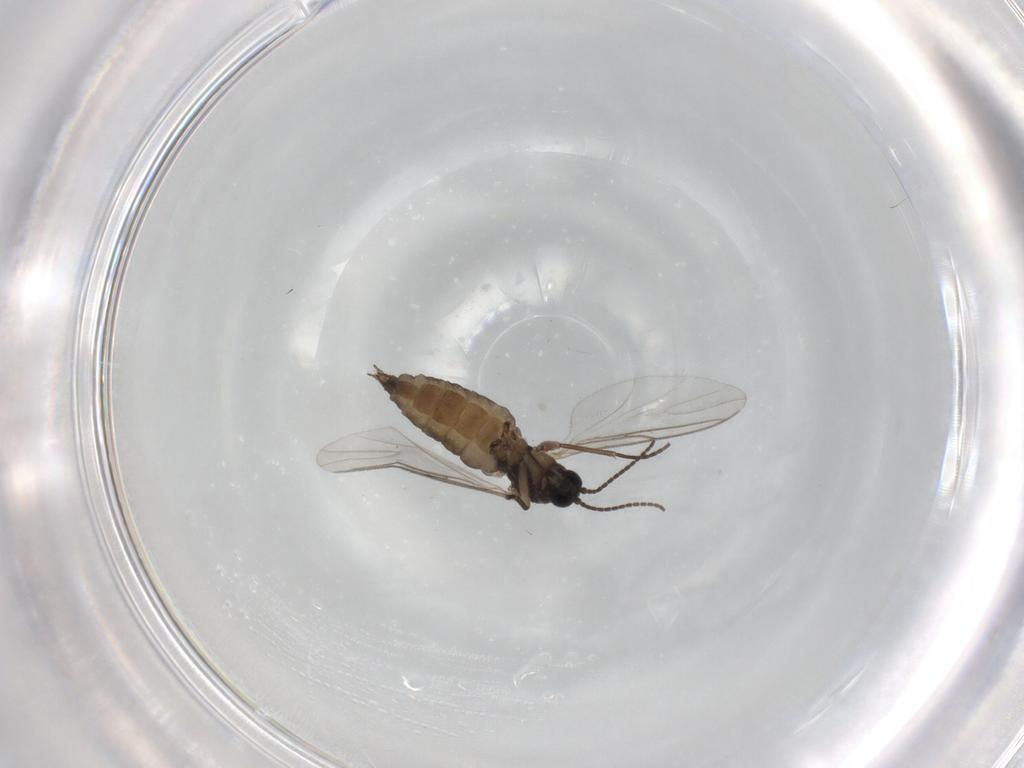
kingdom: Animalia
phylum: Arthropoda
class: Insecta
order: Diptera
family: Sciaridae
